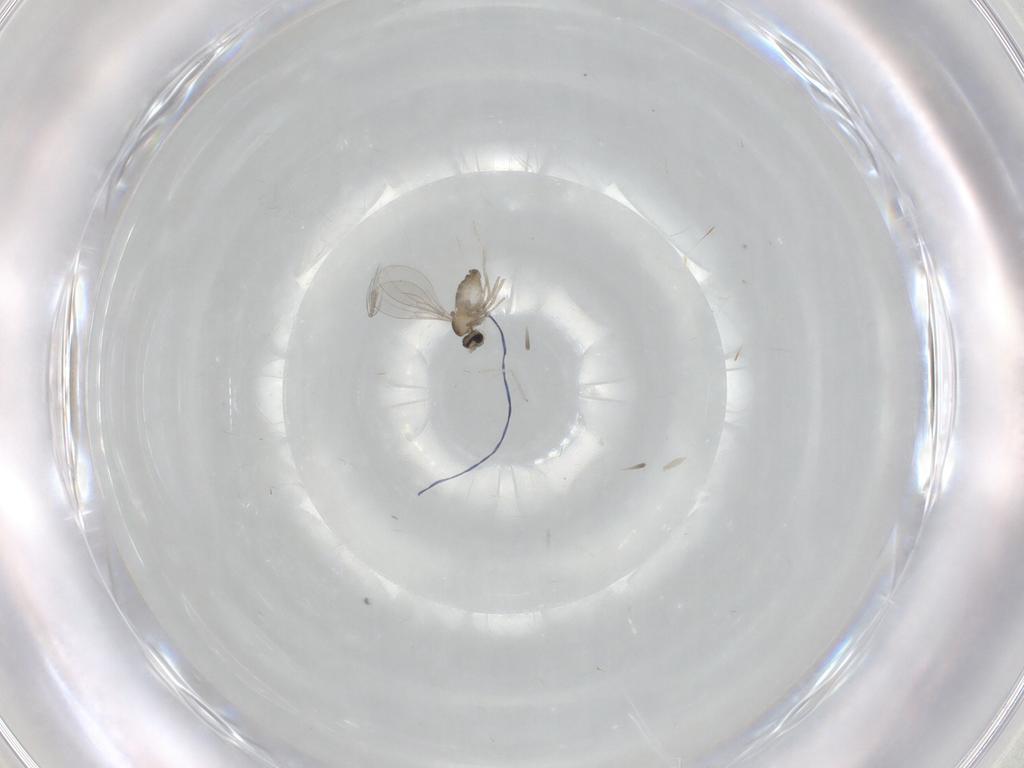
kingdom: Animalia
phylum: Arthropoda
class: Insecta
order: Diptera
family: Cecidomyiidae
